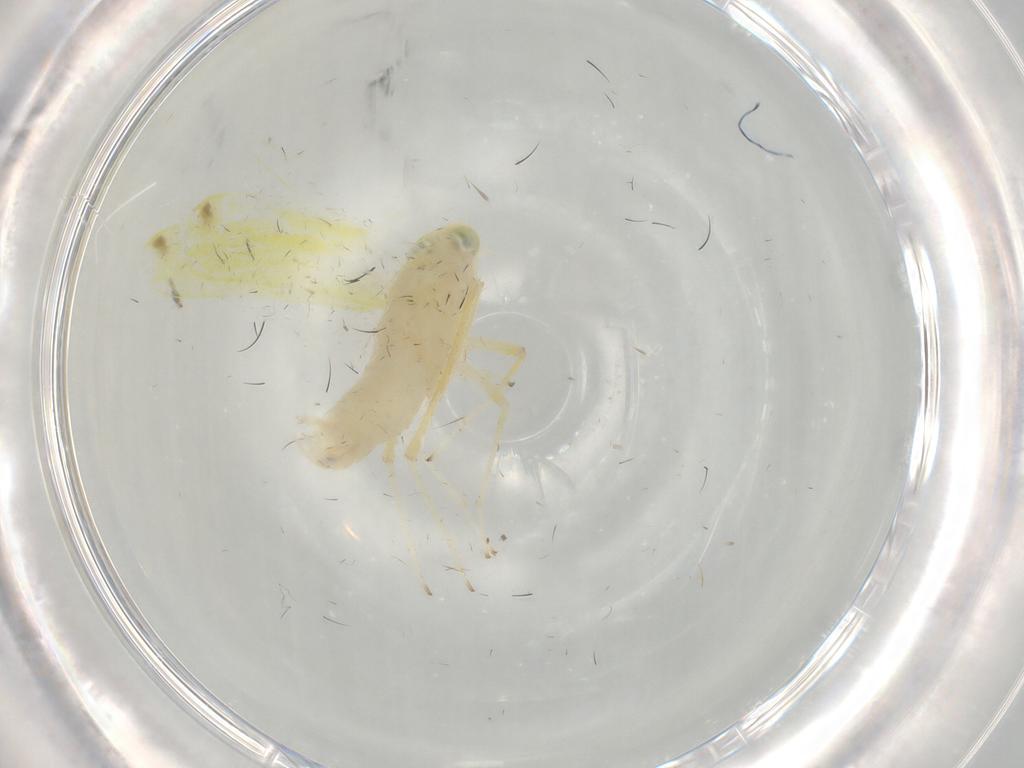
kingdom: Animalia
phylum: Arthropoda
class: Insecta
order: Hemiptera
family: Cicadellidae
